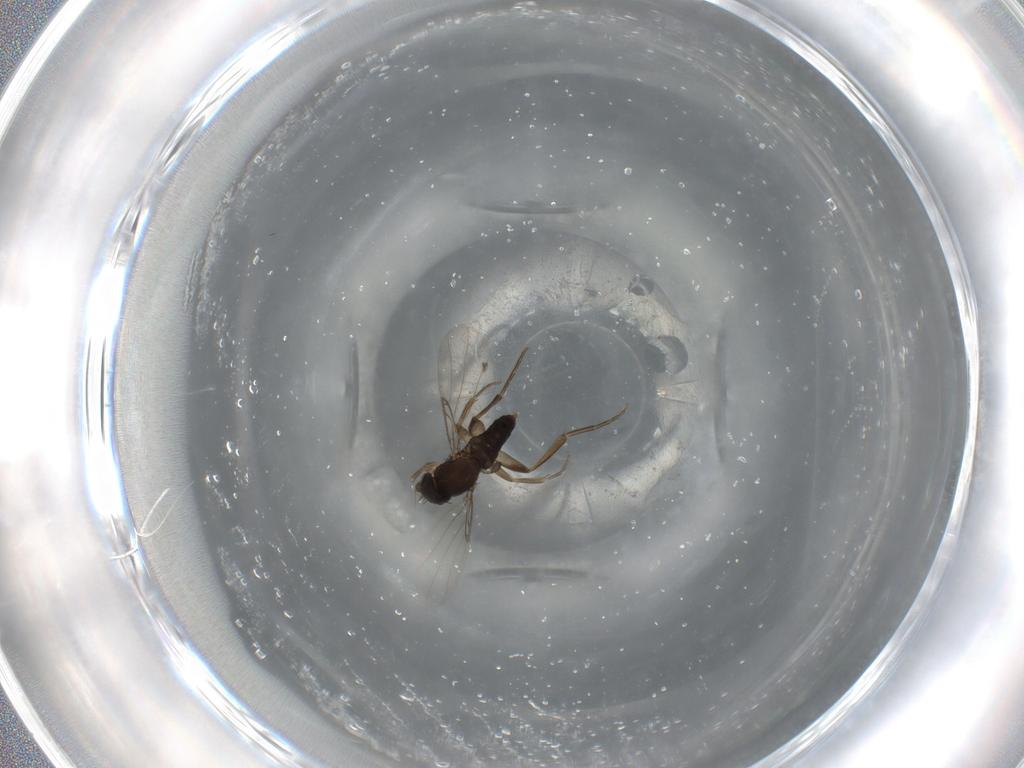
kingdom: Animalia
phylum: Arthropoda
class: Insecta
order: Diptera
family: Phoridae
